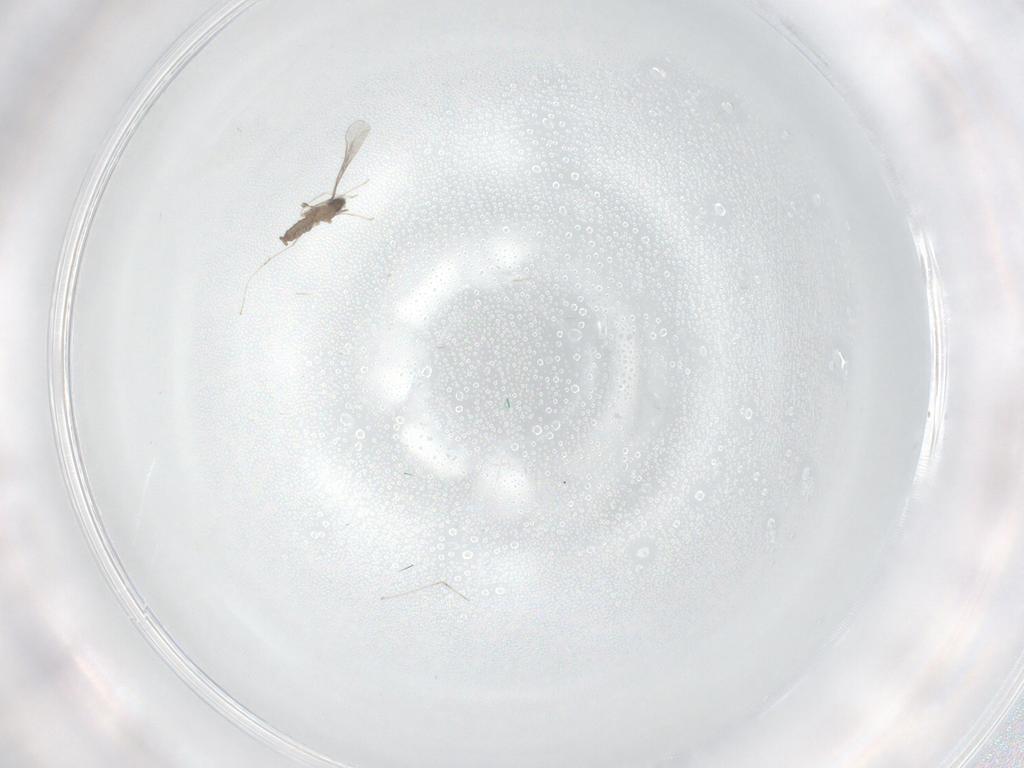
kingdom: Animalia
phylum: Arthropoda
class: Insecta
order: Diptera
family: Cecidomyiidae
